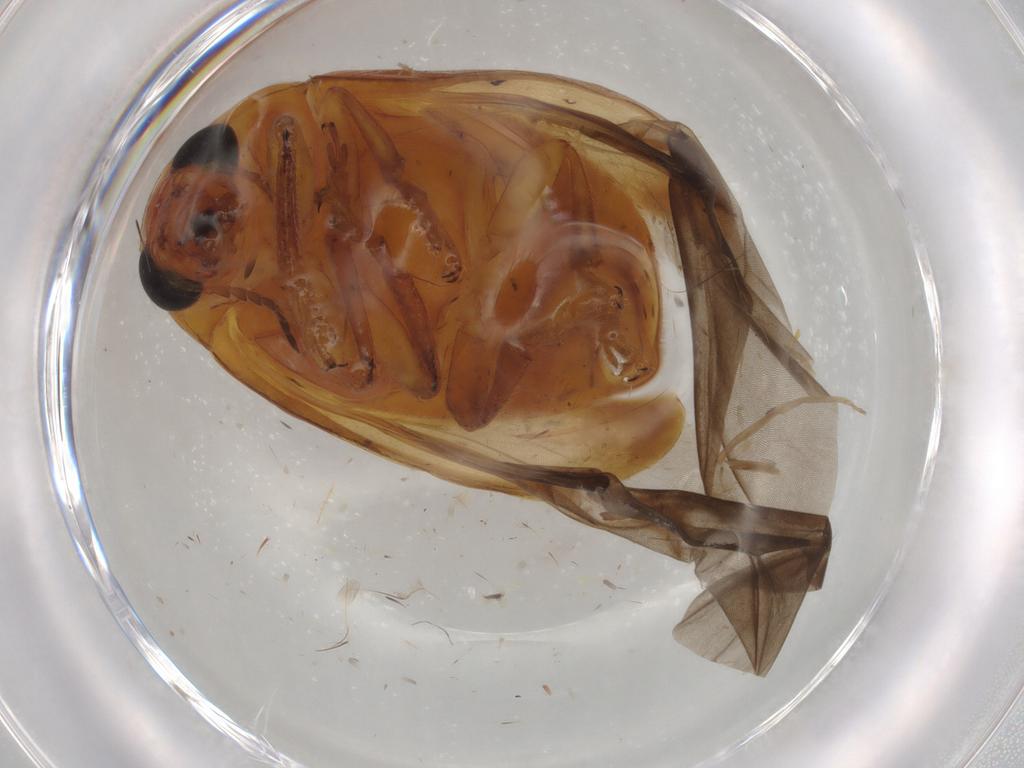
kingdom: Animalia
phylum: Arthropoda
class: Insecta
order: Coleoptera
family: Chrysomelidae
